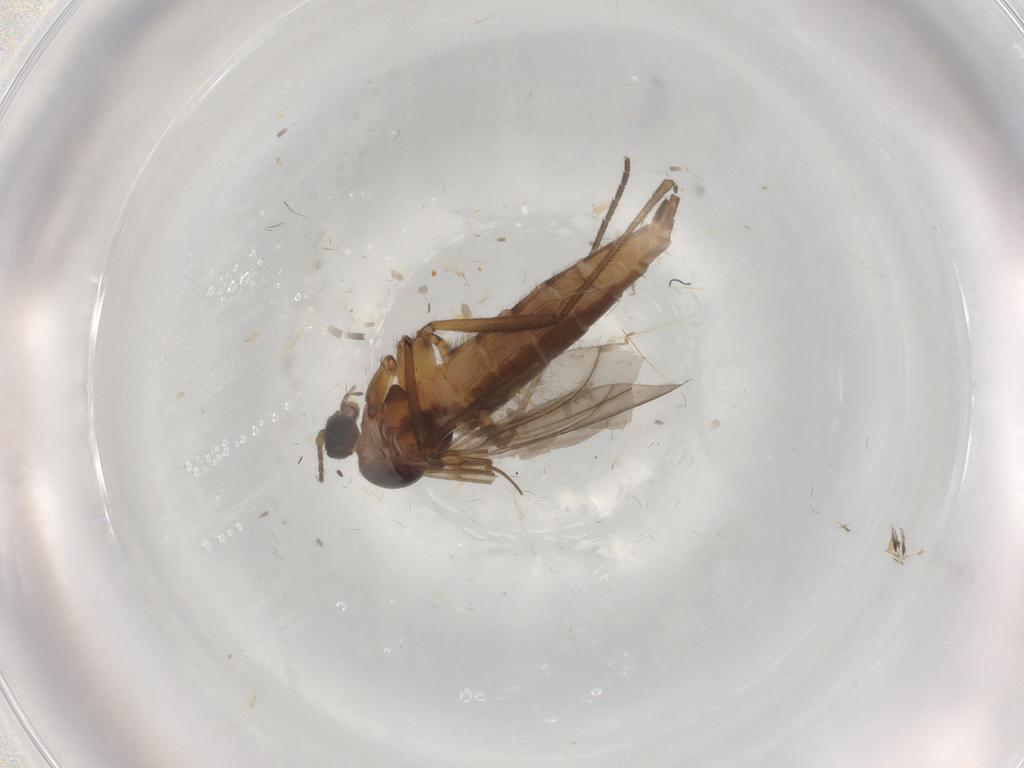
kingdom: Animalia
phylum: Arthropoda
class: Insecta
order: Diptera
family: Sciaridae
